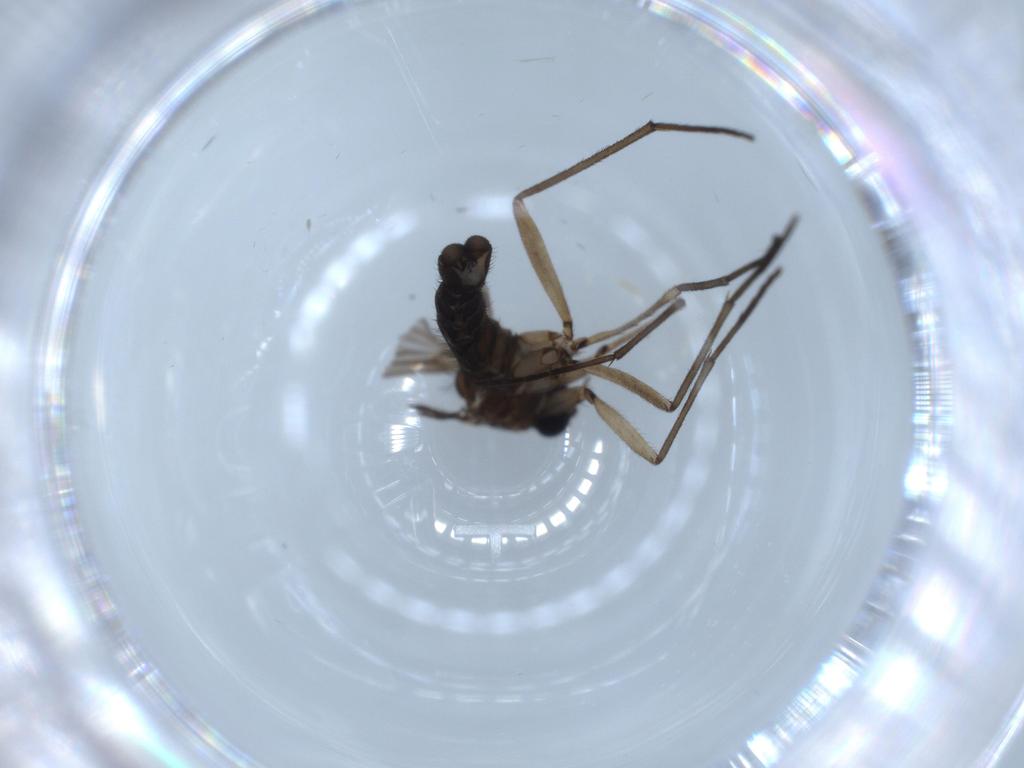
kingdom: Animalia
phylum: Arthropoda
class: Insecta
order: Diptera
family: Sciaridae
